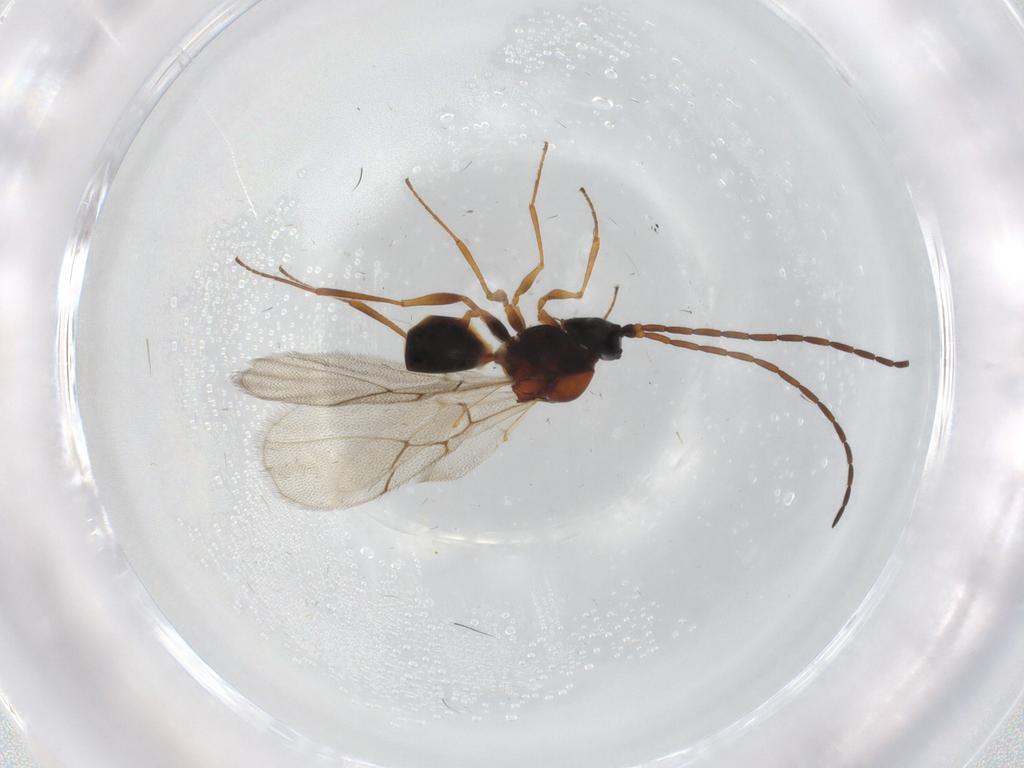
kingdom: Animalia
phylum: Arthropoda
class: Insecta
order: Hymenoptera
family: Figitidae
